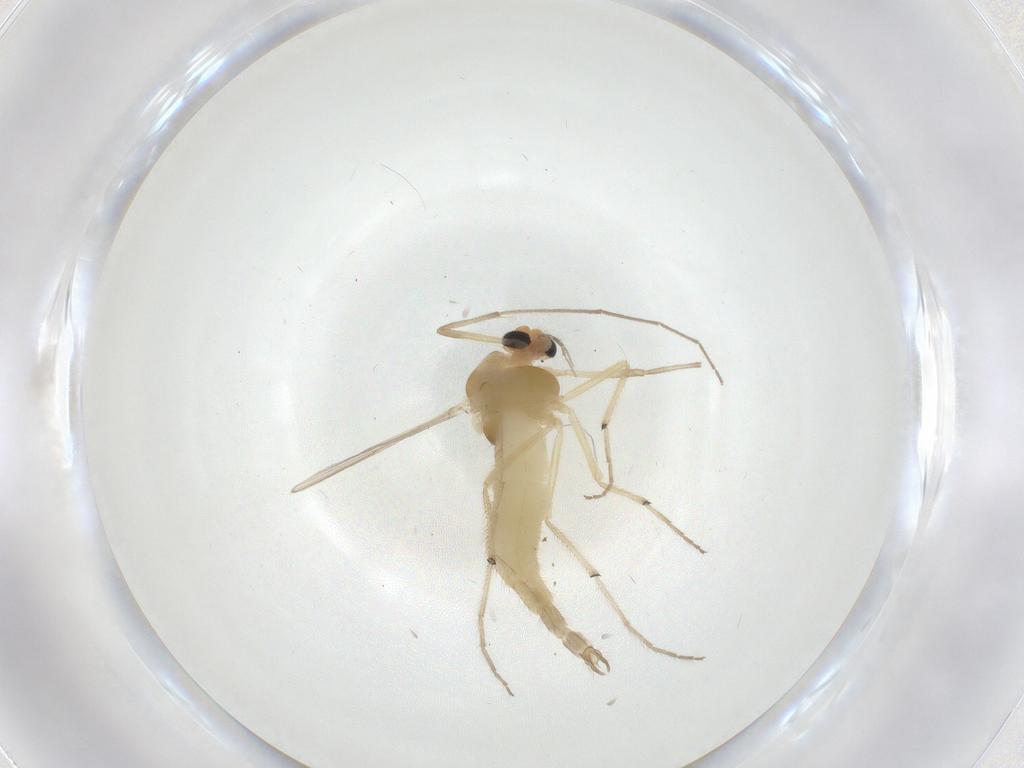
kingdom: Animalia
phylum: Arthropoda
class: Insecta
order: Diptera
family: Chironomidae
